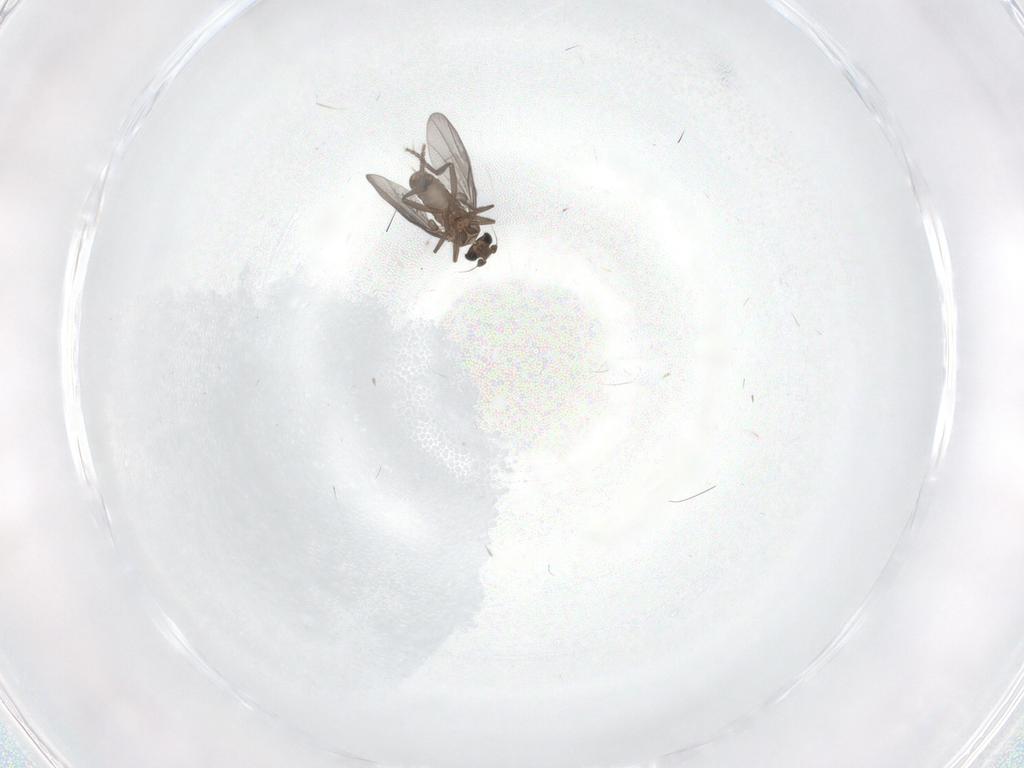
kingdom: Animalia
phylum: Arthropoda
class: Insecta
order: Diptera
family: Phoridae
